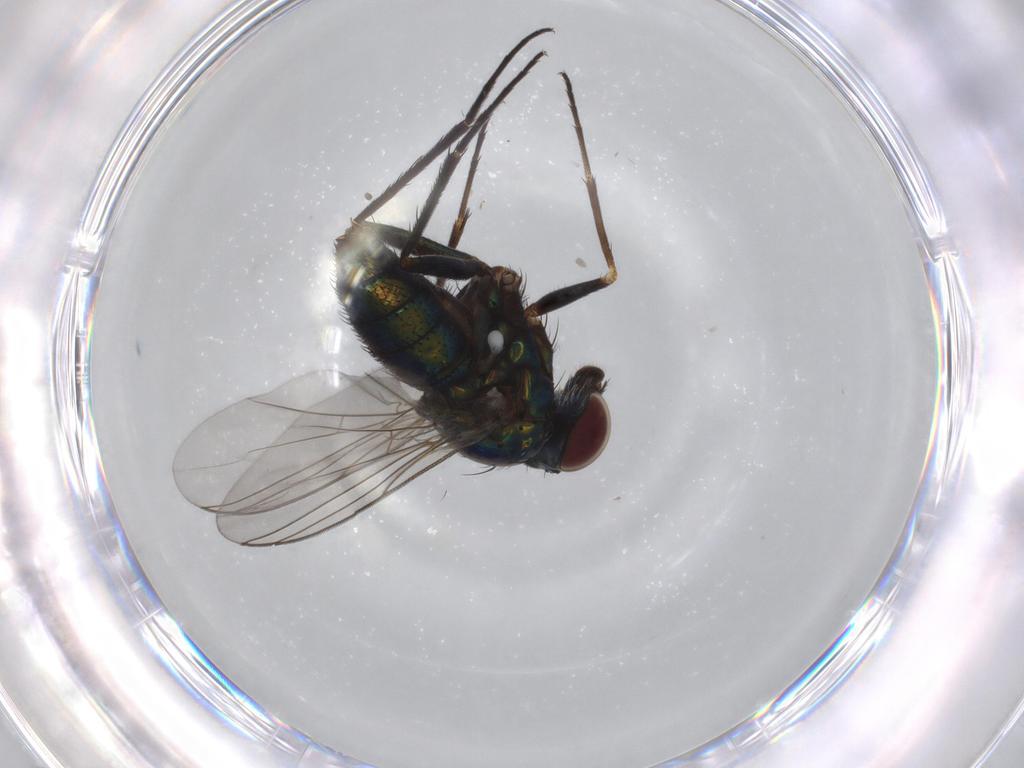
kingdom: Animalia
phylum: Arthropoda
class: Insecta
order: Diptera
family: Dolichopodidae
